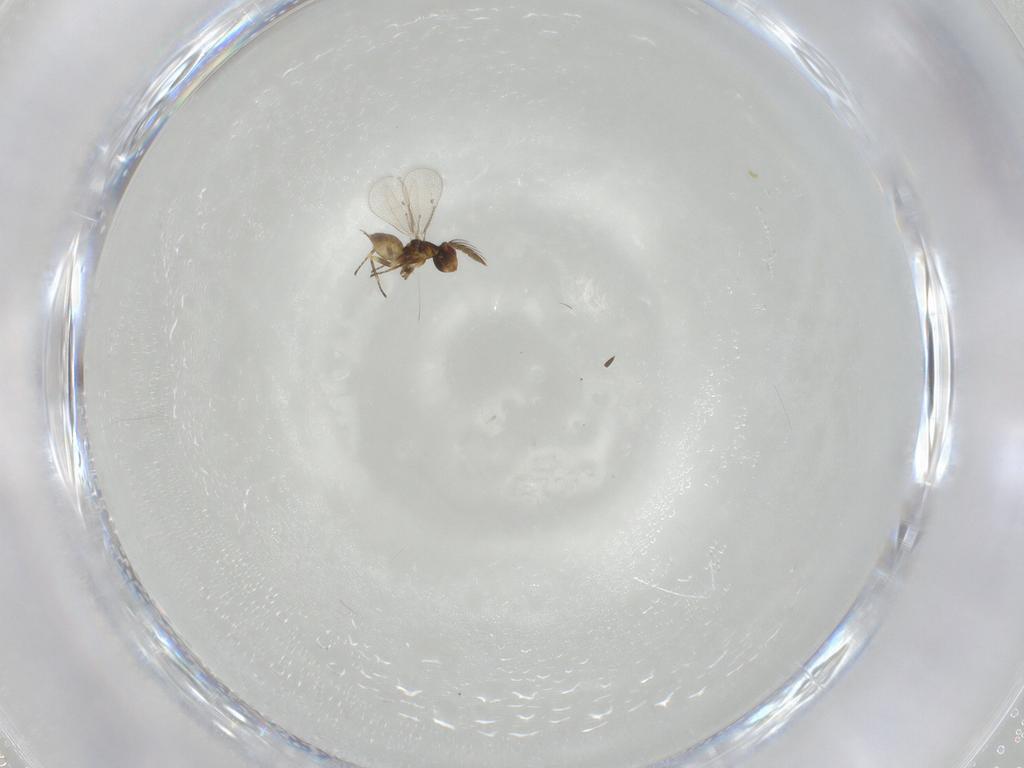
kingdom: Animalia
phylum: Arthropoda
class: Insecta
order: Hymenoptera
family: Eulophidae
